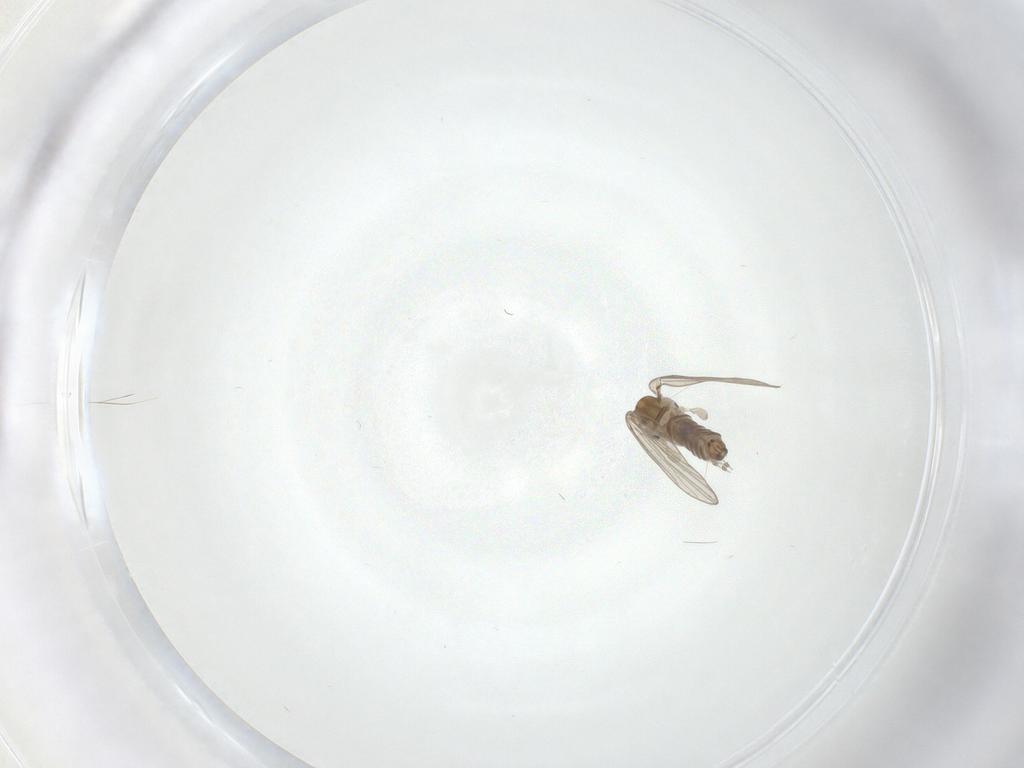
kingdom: Animalia
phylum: Arthropoda
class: Insecta
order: Diptera
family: Psychodidae
